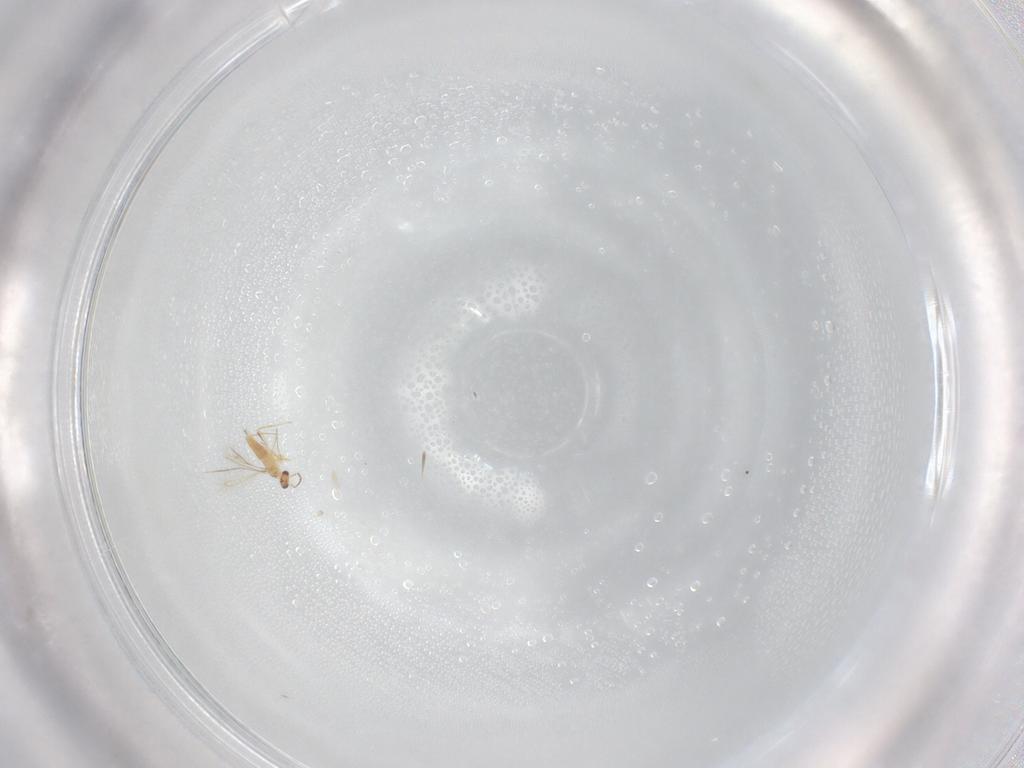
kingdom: Animalia
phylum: Arthropoda
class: Insecta
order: Hymenoptera
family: Mymaridae
